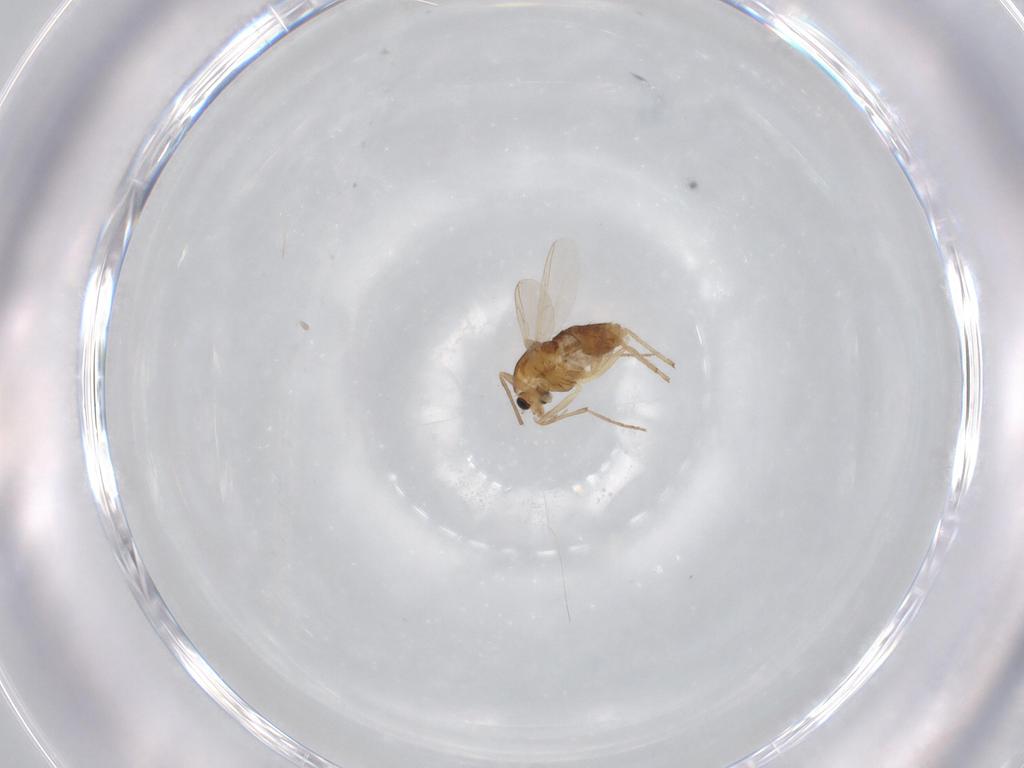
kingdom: Animalia
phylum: Arthropoda
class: Insecta
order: Diptera
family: Chironomidae
